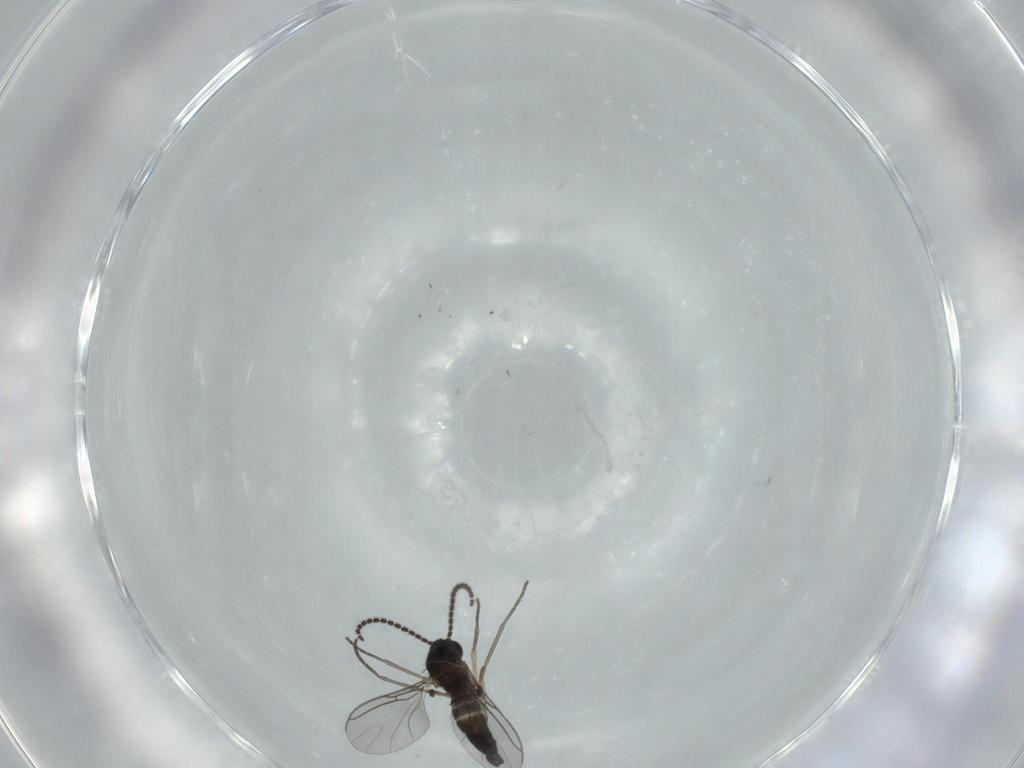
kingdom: Animalia
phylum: Arthropoda
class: Insecta
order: Diptera
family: Sciaridae
